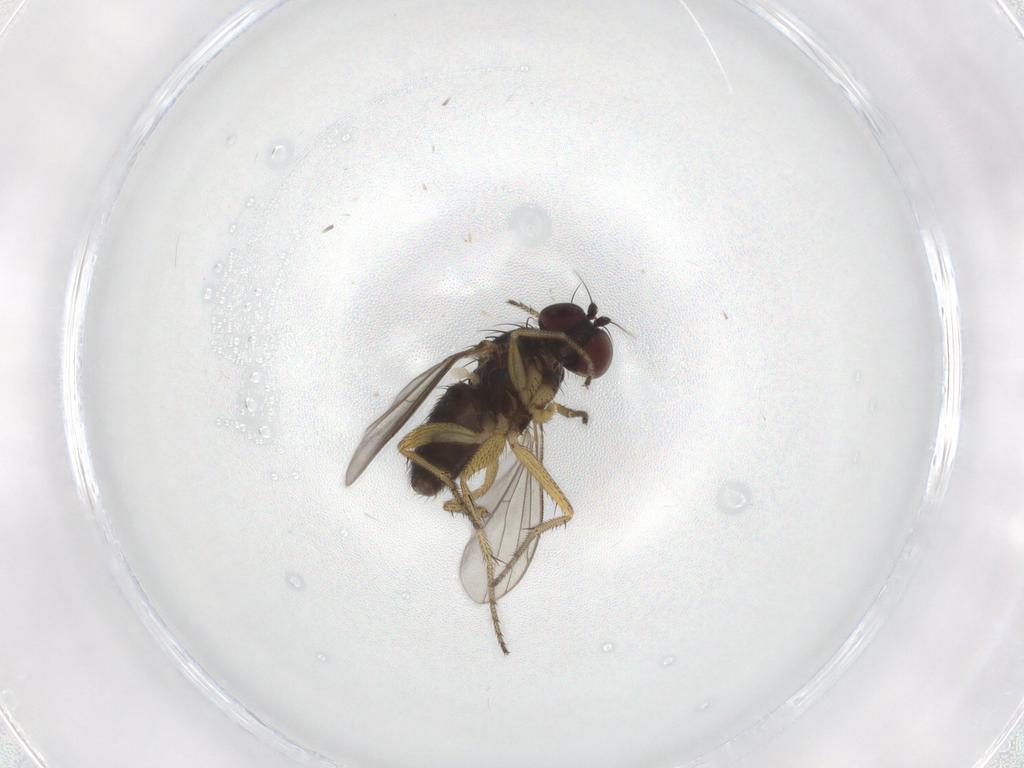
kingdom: Animalia
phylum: Arthropoda
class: Insecta
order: Diptera
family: Dolichopodidae
